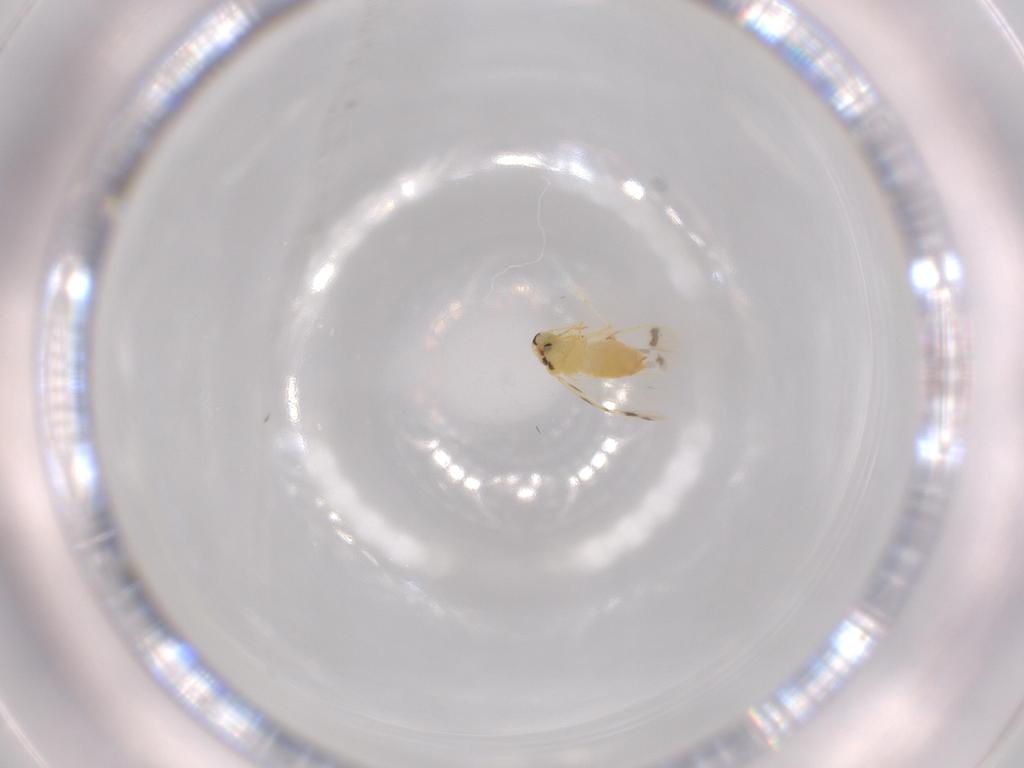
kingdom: Animalia
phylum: Arthropoda
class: Insecta
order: Hemiptera
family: Aleyrodidae
